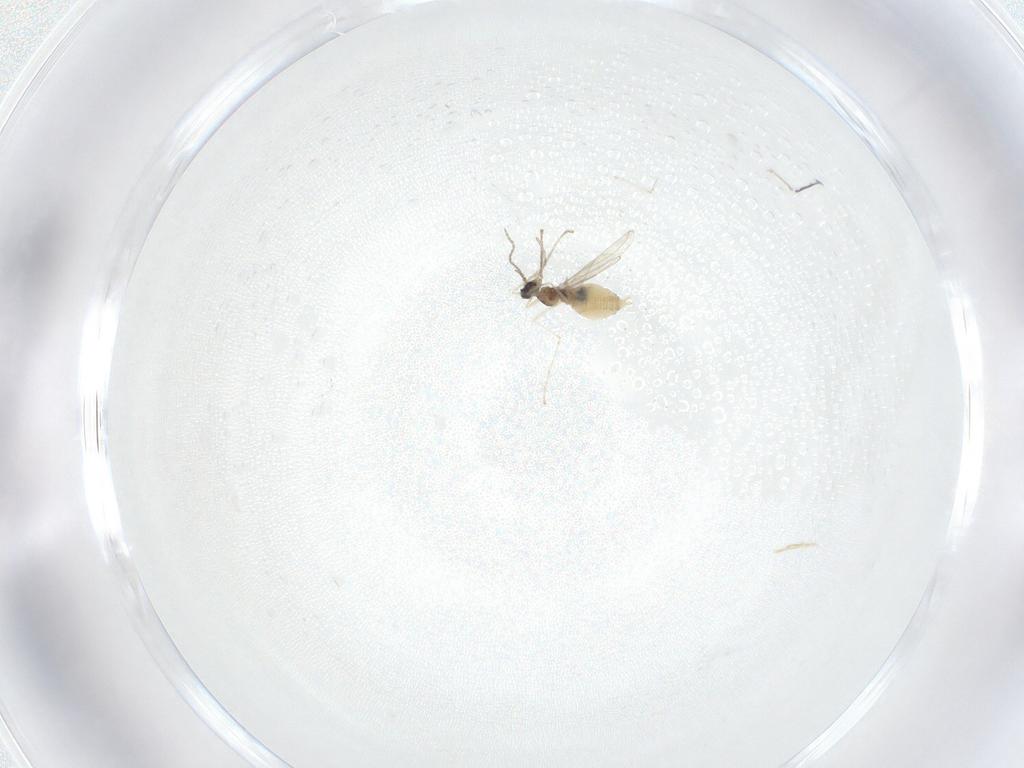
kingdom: Animalia
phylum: Arthropoda
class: Insecta
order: Diptera
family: Cecidomyiidae
